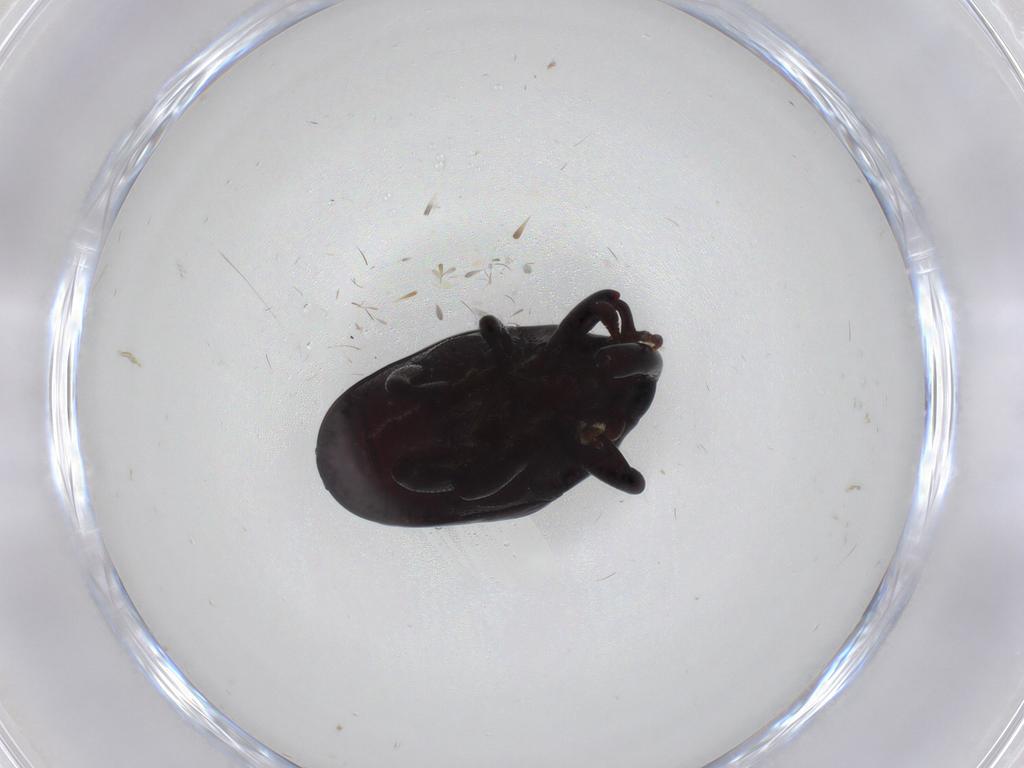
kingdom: Animalia
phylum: Arthropoda
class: Insecta
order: Coleoptera
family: Curculionidae
